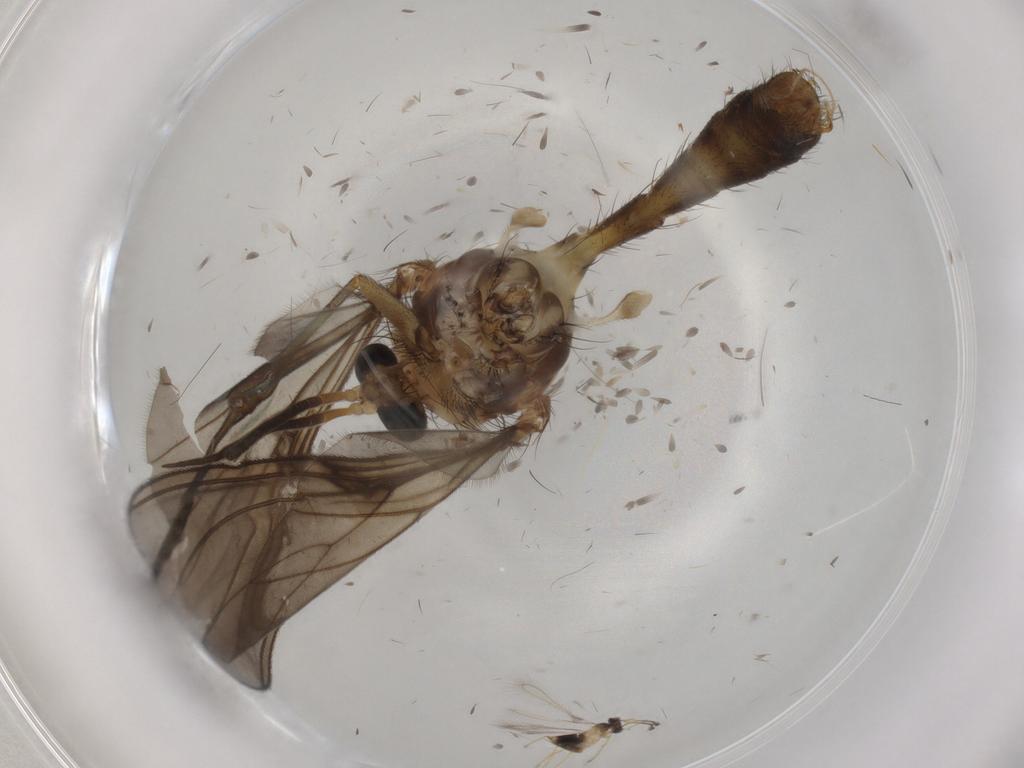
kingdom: Animalia
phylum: Arthropoda
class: Insecta
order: Diptera
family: Mycetophilidae
